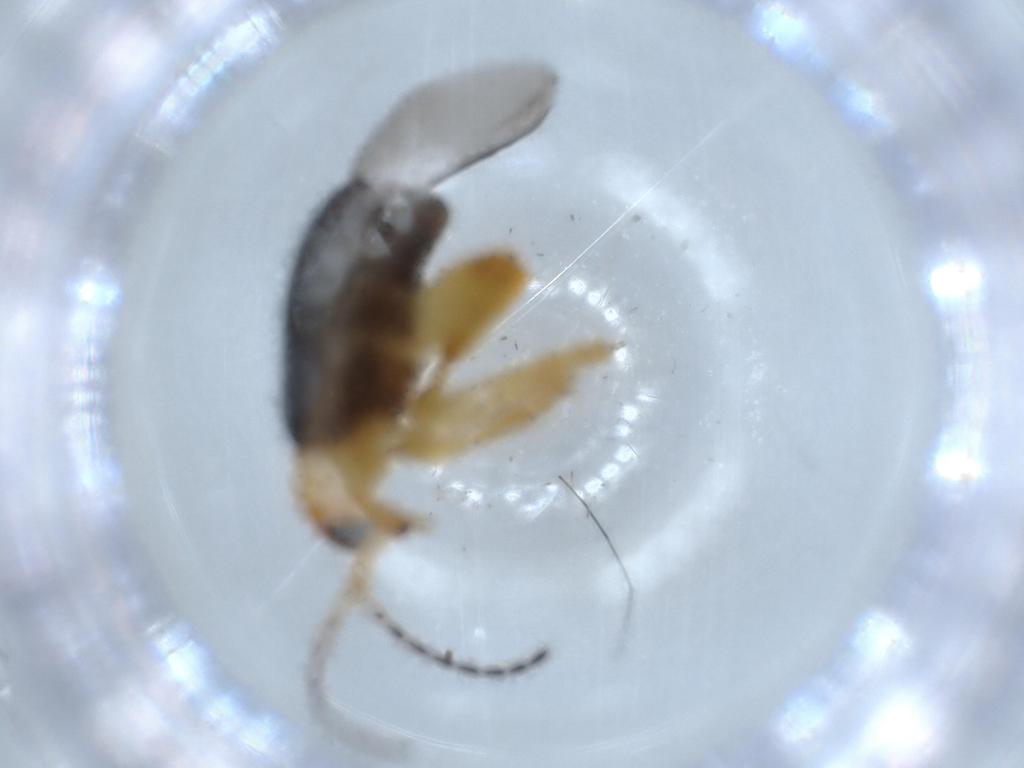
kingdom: Animalia
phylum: Arthropoda
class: Insecta
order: Coleoptera
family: Chrysomelidae
